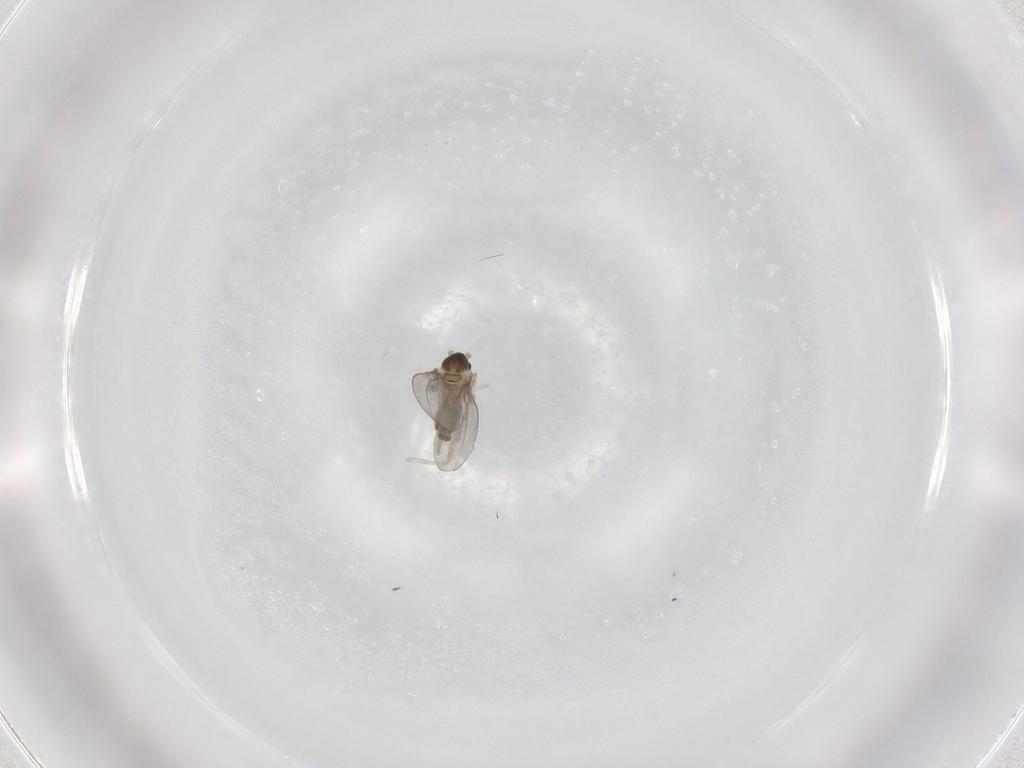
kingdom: Animalia
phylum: Arthropoda
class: Insecta
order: Diptera
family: Cecidomyiidae
